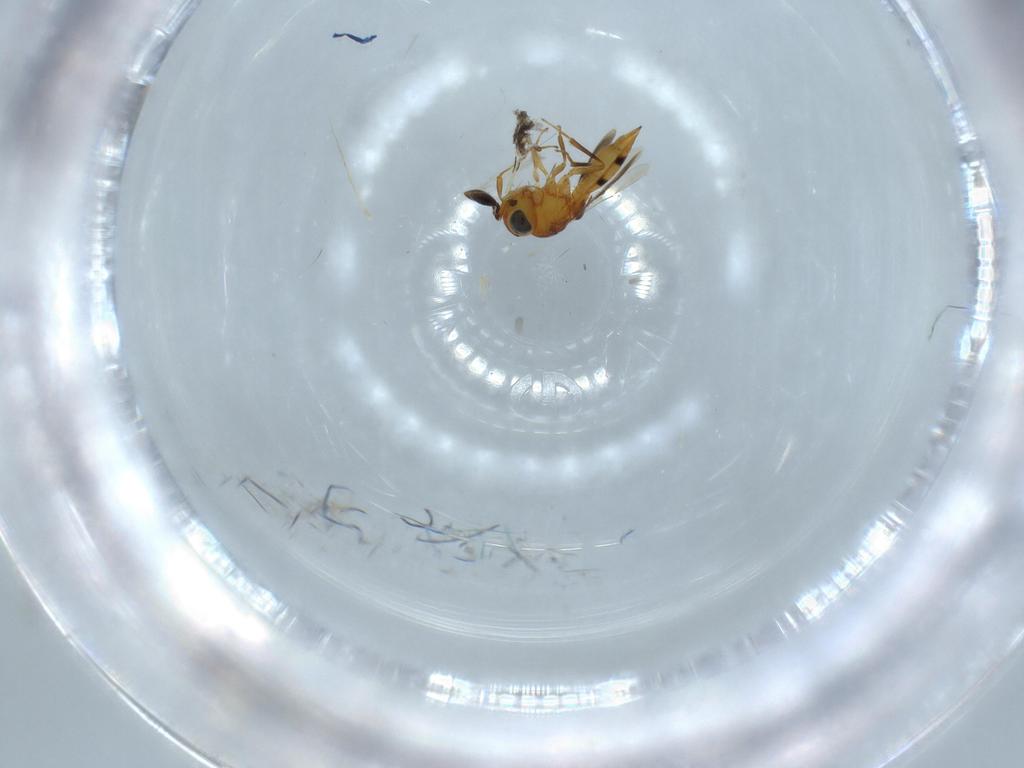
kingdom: Animalia
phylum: Arthropoda
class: Insecta
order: Hymenoptera
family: Scelionidae
